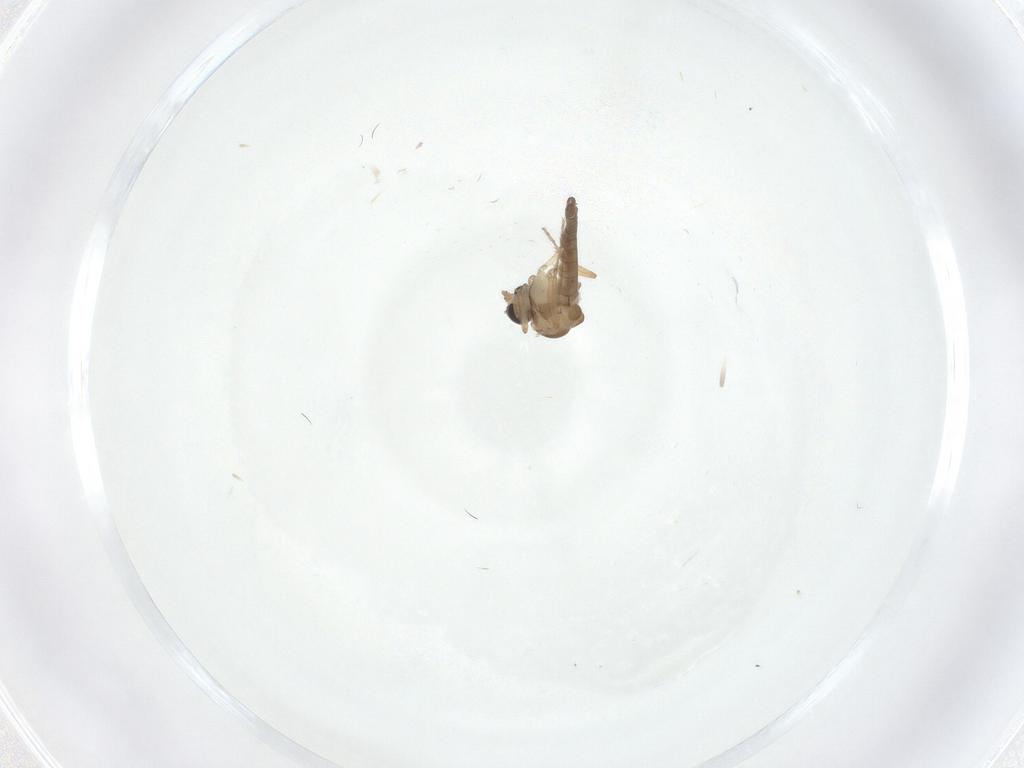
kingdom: Animalia
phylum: Arthropoda
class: Insecta
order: Diptera
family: Ceratopogonidae
